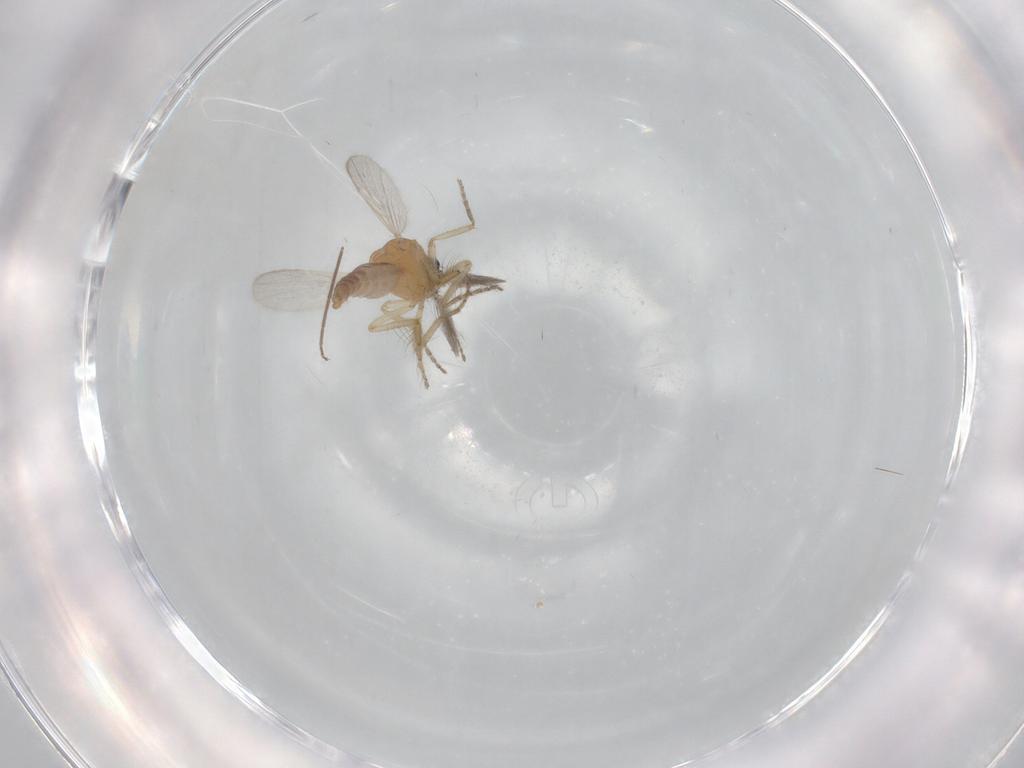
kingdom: Animalia
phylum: Arthropoda
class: Insecta
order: Diptera
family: Ceratopogonidae
